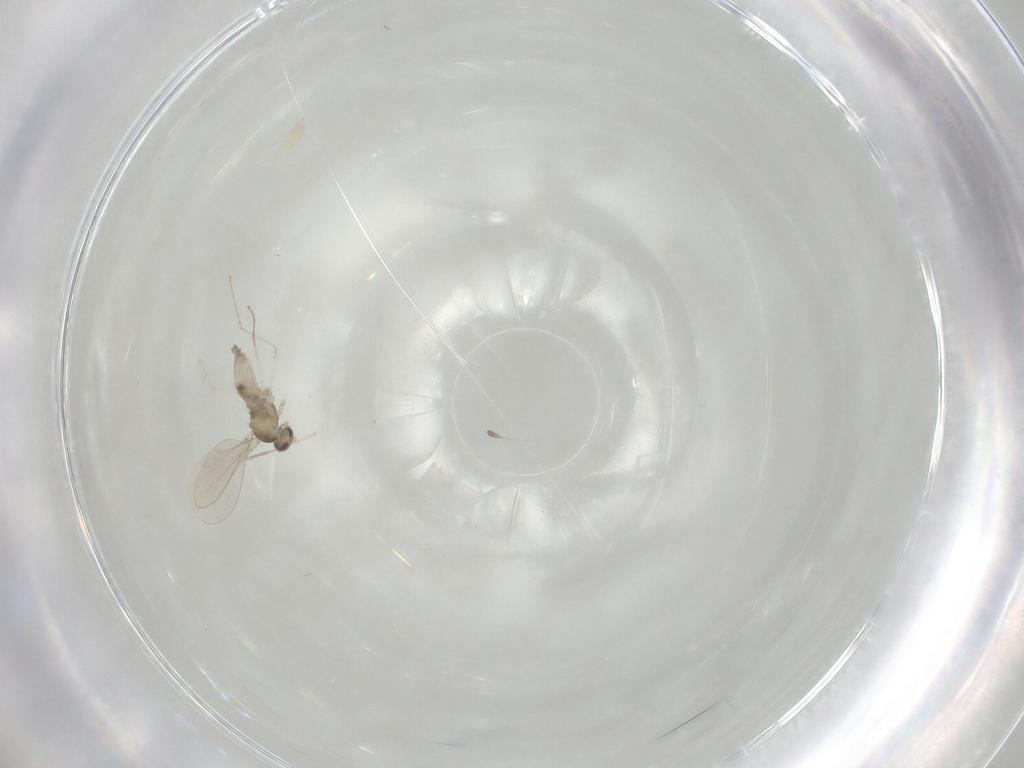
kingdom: Animalia
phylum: Arthropoda
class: Insecta
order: Diptera
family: Cecidomyiidae
